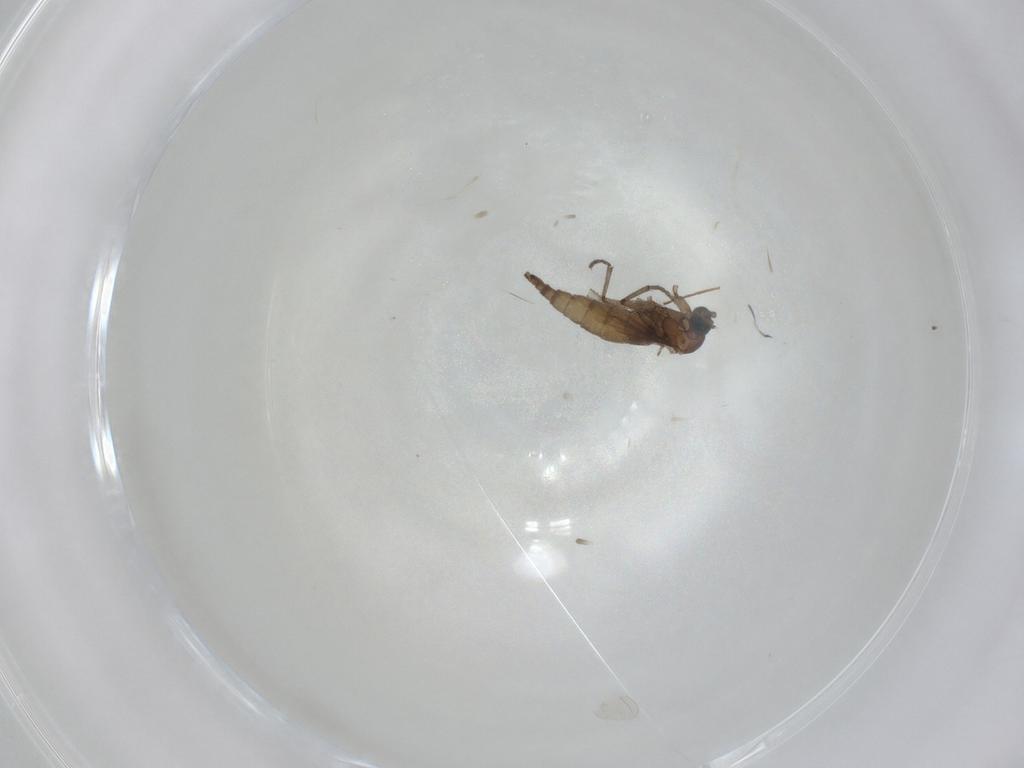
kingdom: Animalia
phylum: Arthropoda
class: Insecta
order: Diptera
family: Sciaridae
